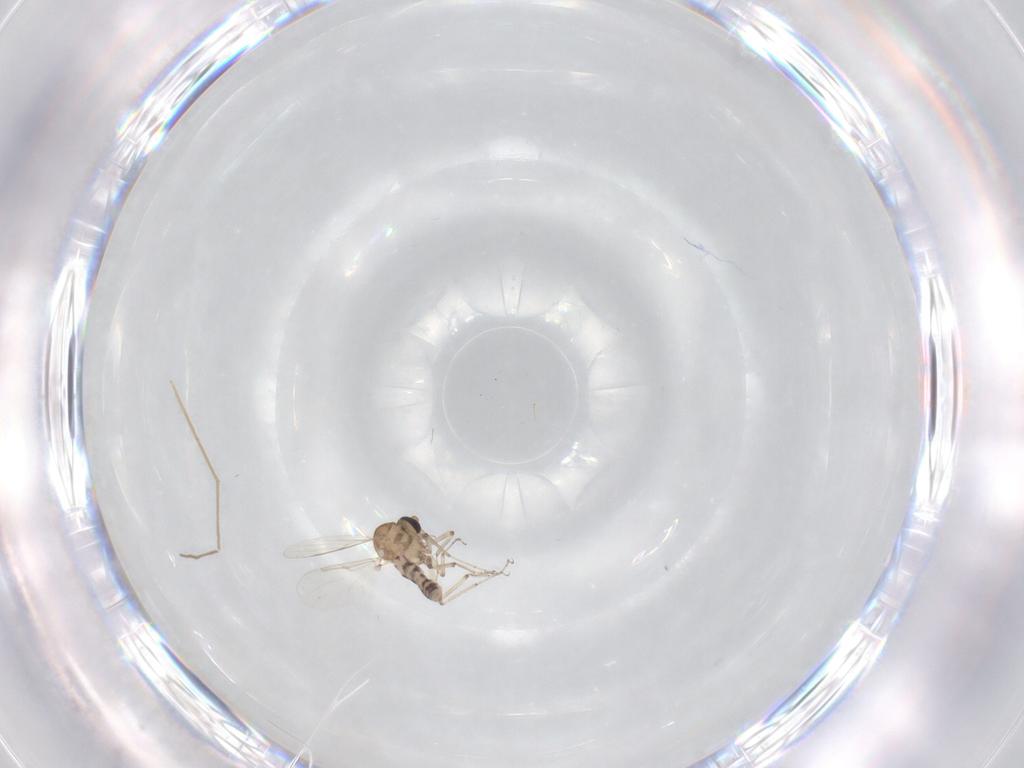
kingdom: Animalia
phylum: Arthropoda
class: Insecta
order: Diptera
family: Ceratopogonidae
